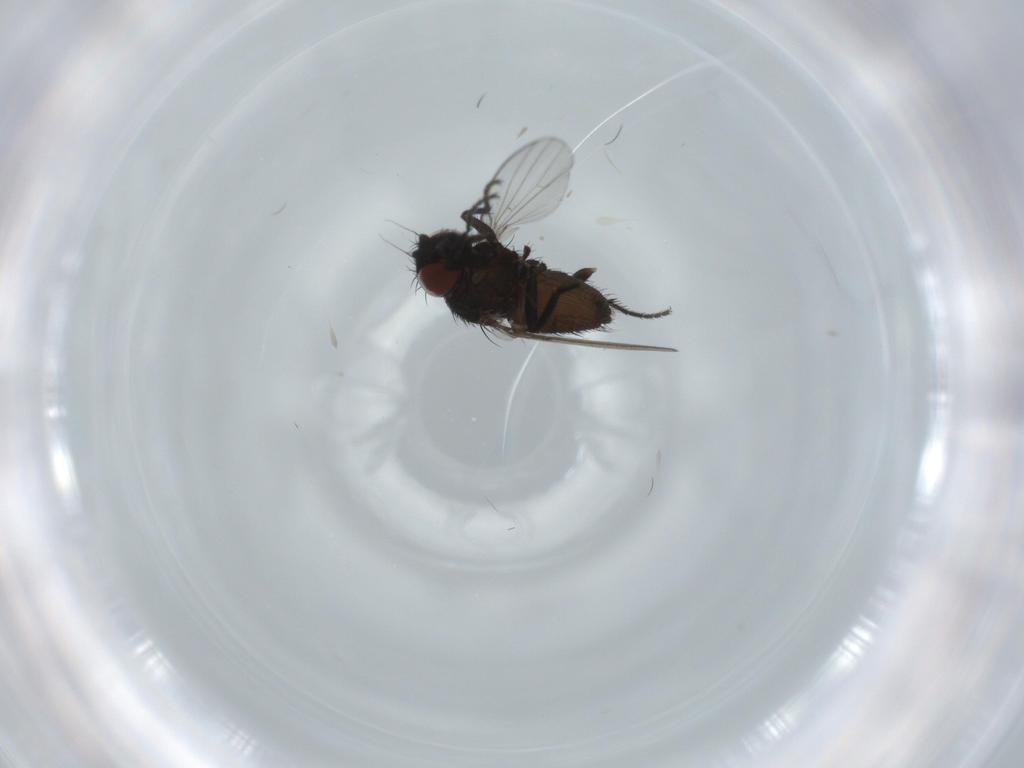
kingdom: Animalia
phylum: Arthropoda
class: Insecta
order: Diptera
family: Milichiidae
